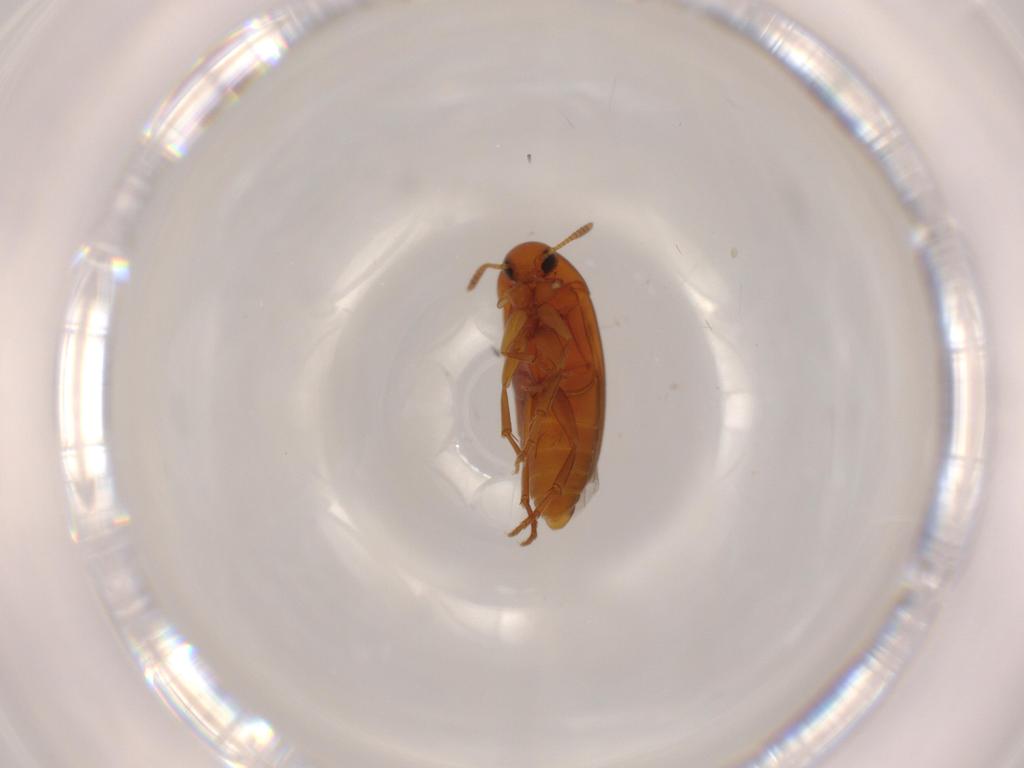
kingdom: Animalia
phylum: Arthropoda
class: Insecta
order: Coleoptera
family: Scraptiidae
